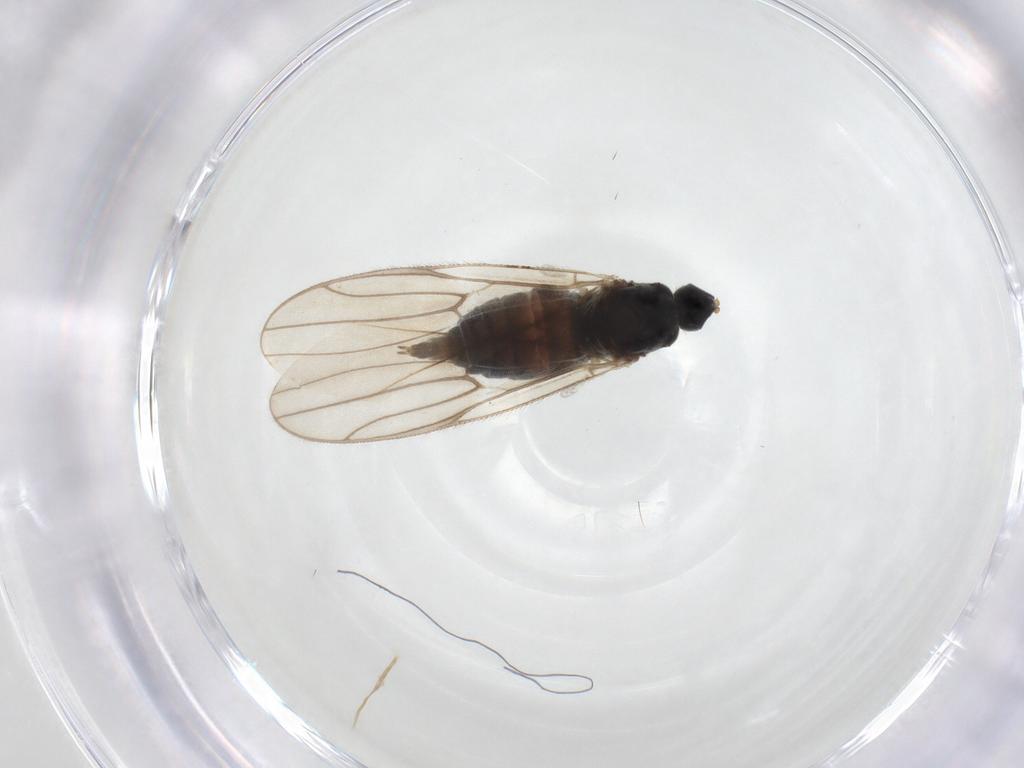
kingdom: Animalia
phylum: Arthropoda
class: Insecta
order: Diptera
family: Hybotidae
